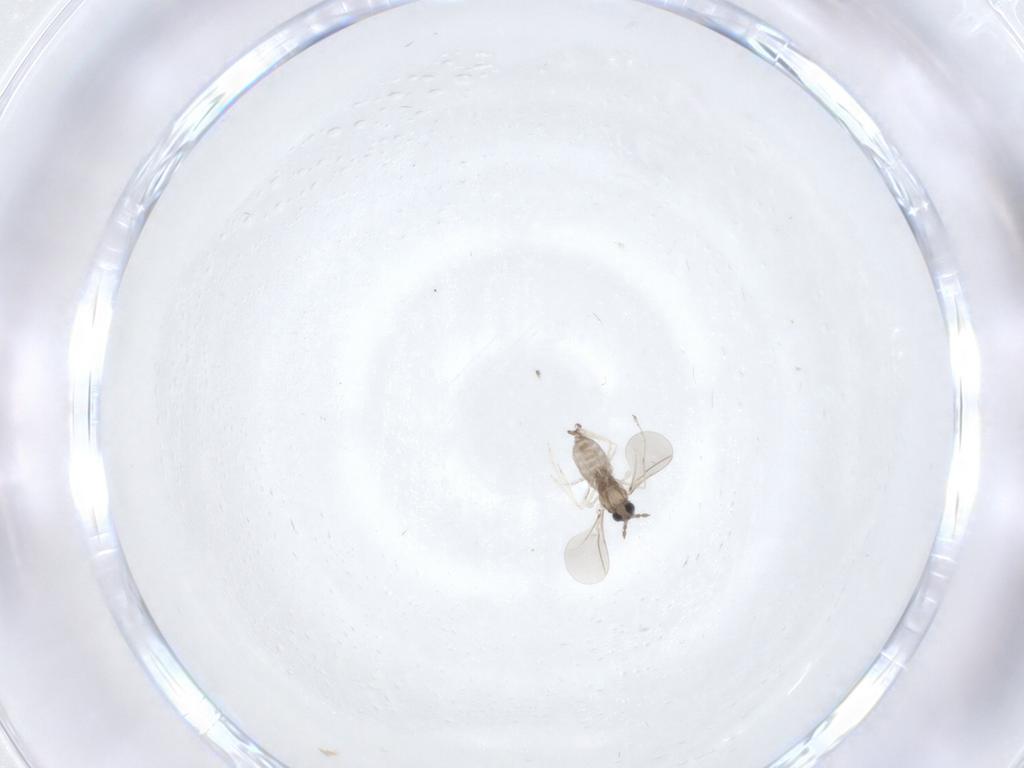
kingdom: Animalia
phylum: Arthropoda
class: Insecta
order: Diptera
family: Cecidomyiidae
